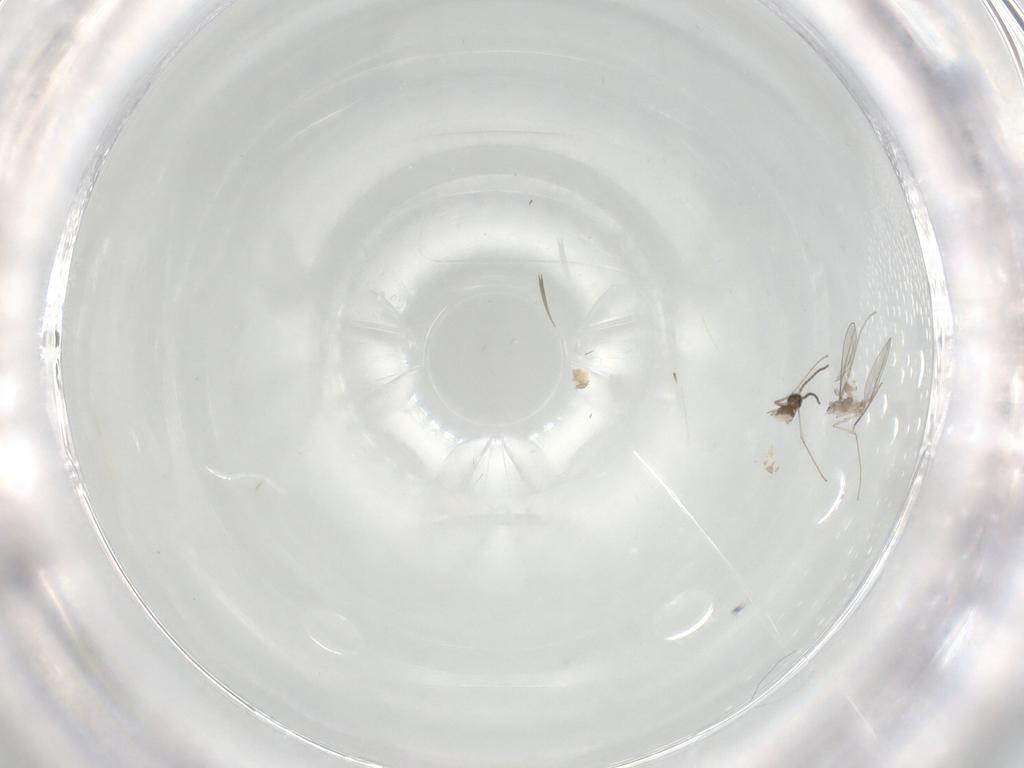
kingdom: Animalia
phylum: Arthropoda
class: Insecta
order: Diptera
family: Cecidomyiidae
